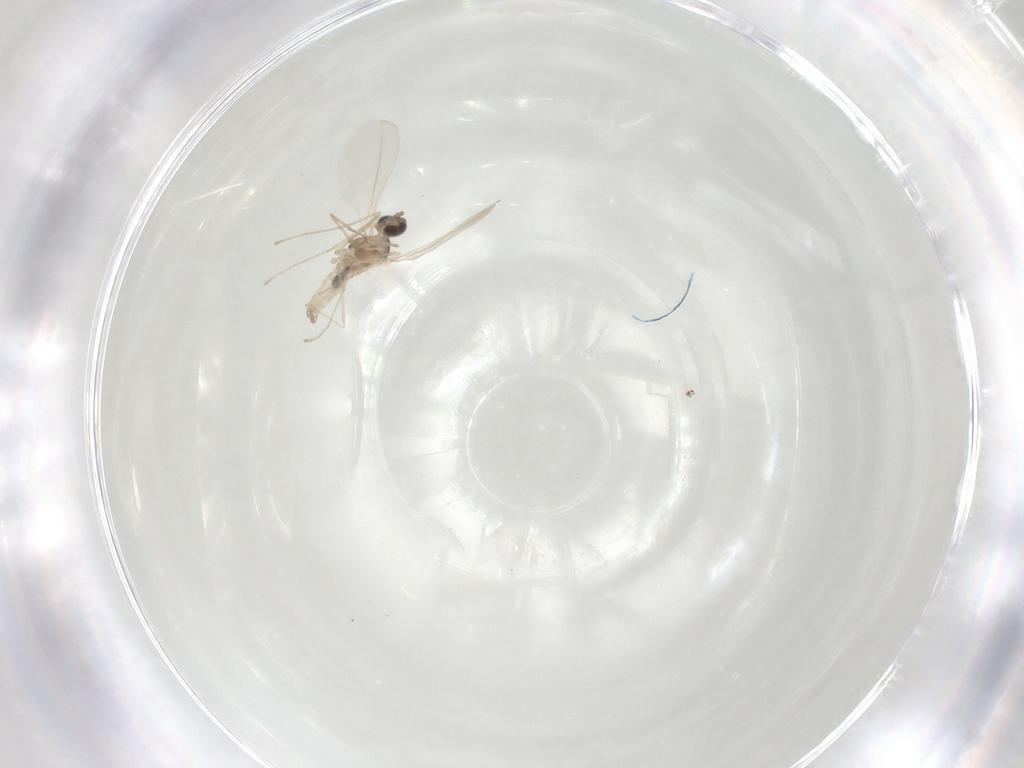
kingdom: Animalia
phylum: Arthropoda
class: Insecta
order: Diptera
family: Cecidomyiidae
